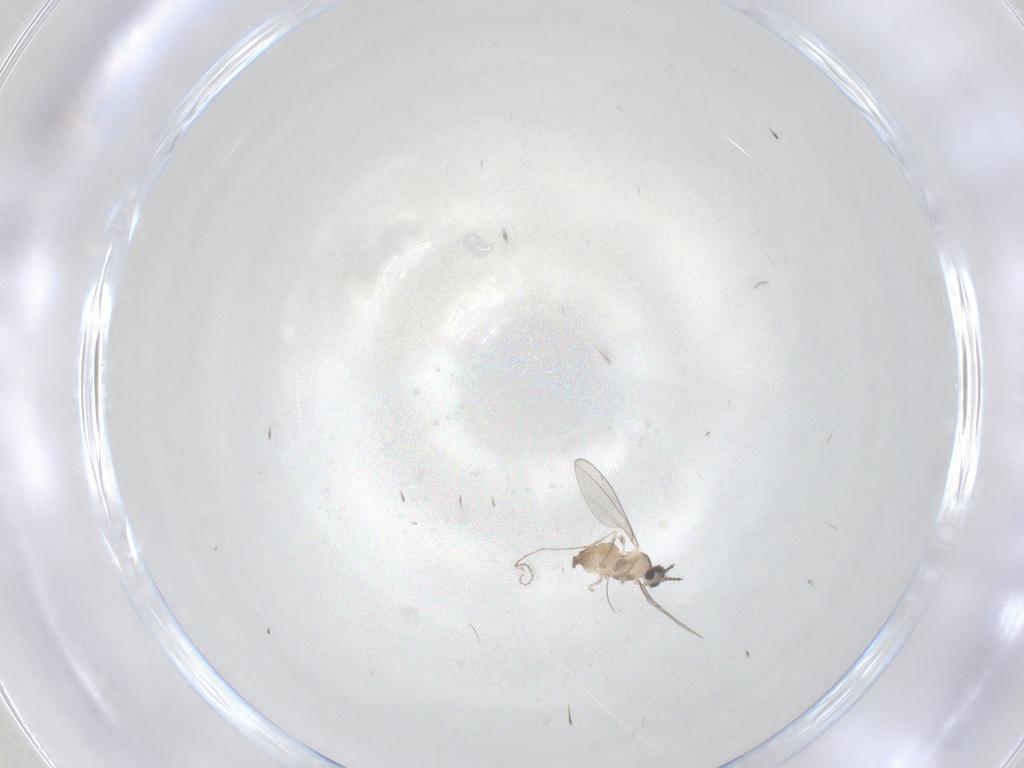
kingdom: Animalia
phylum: Arthropoda
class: Insecta
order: Diptera
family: Cecidomyiidae
